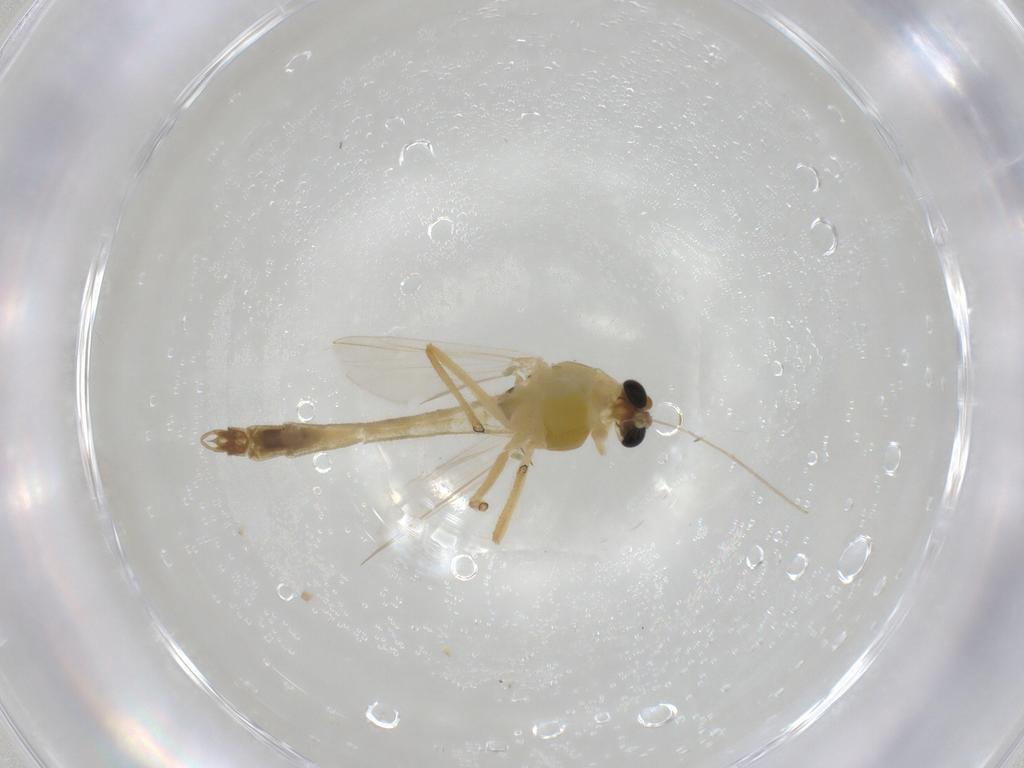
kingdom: Animalia
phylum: Arthropoda
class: Insecta
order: Diptera
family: Chironomidae
